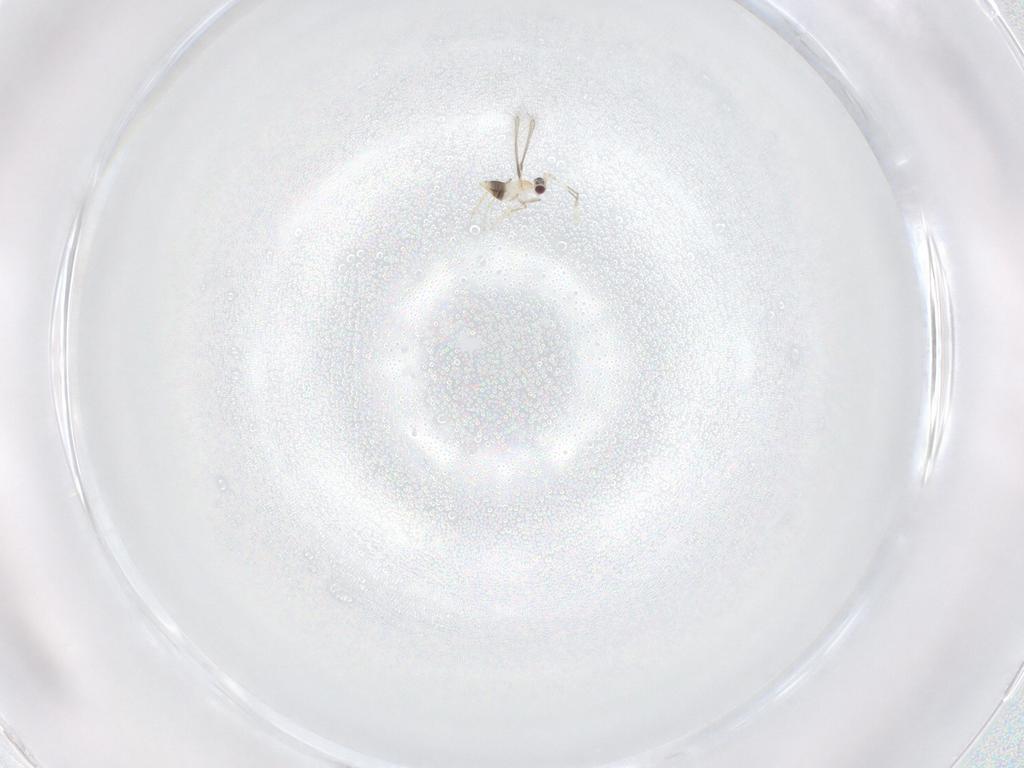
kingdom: Animalia
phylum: Arthropoda
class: Insecta
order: Hymenoptera
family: Mymaridae
